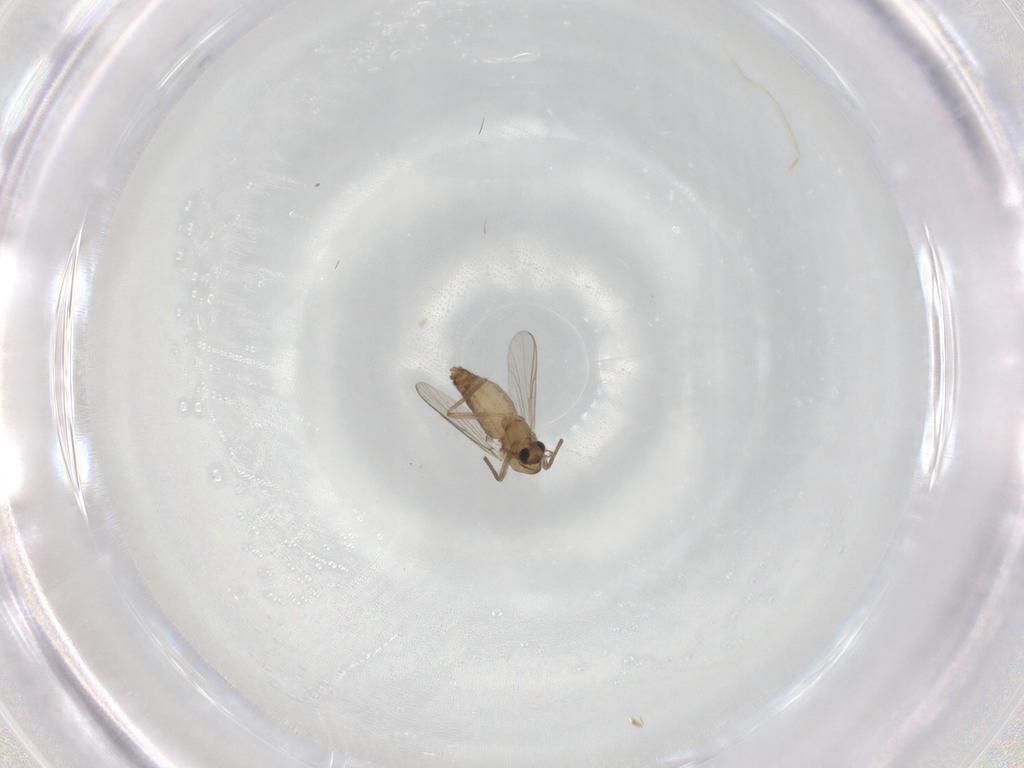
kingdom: Animalia
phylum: Arthropoda
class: Insecta
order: Diptera
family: Chironomidae
